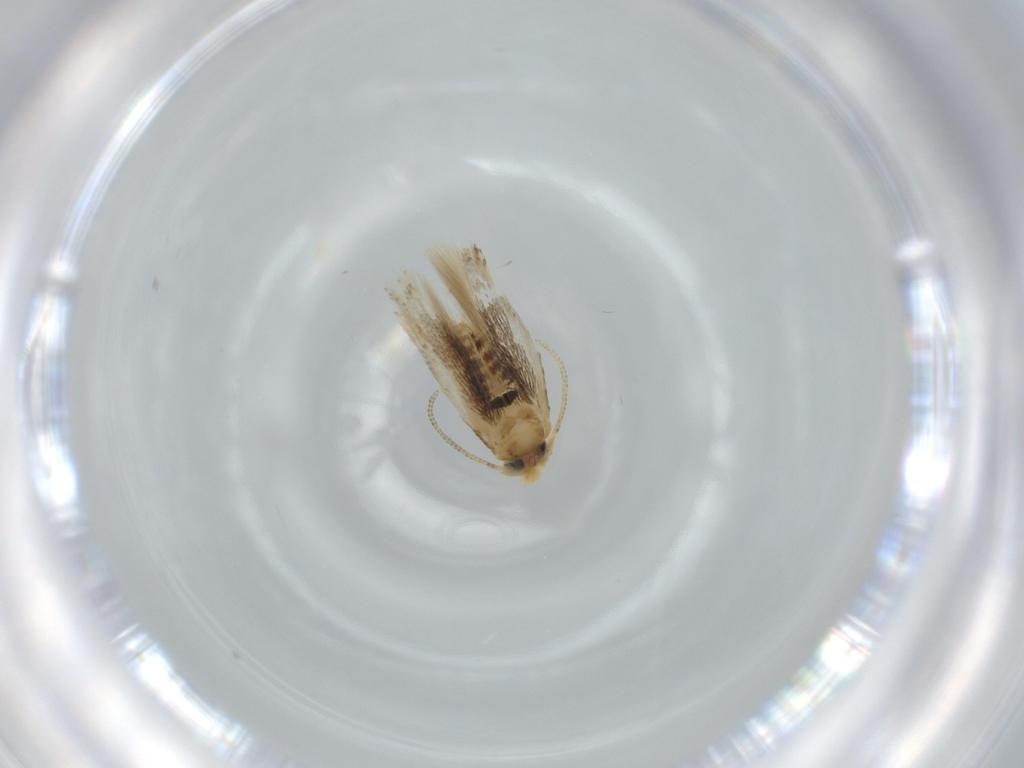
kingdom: Animalia
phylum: Arthropoda
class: Insecta
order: Lepidoptera
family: Nepticulidae
